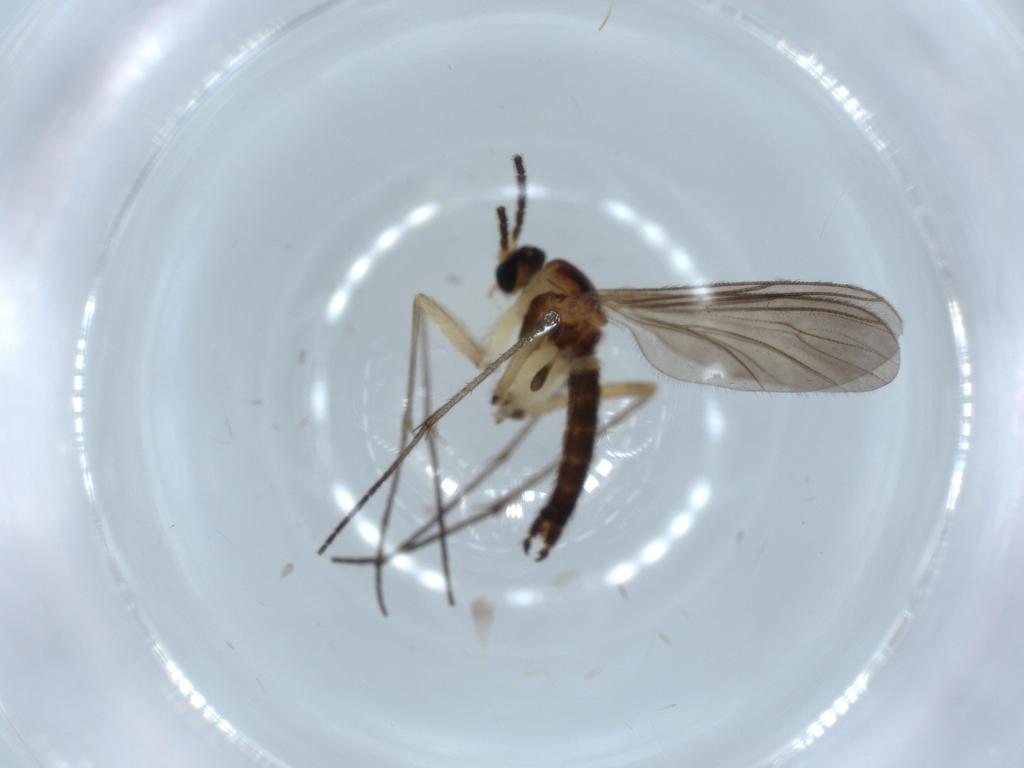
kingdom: Animalia
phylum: Arthropoda
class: Insecta
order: Diptera
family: Sciaridae
